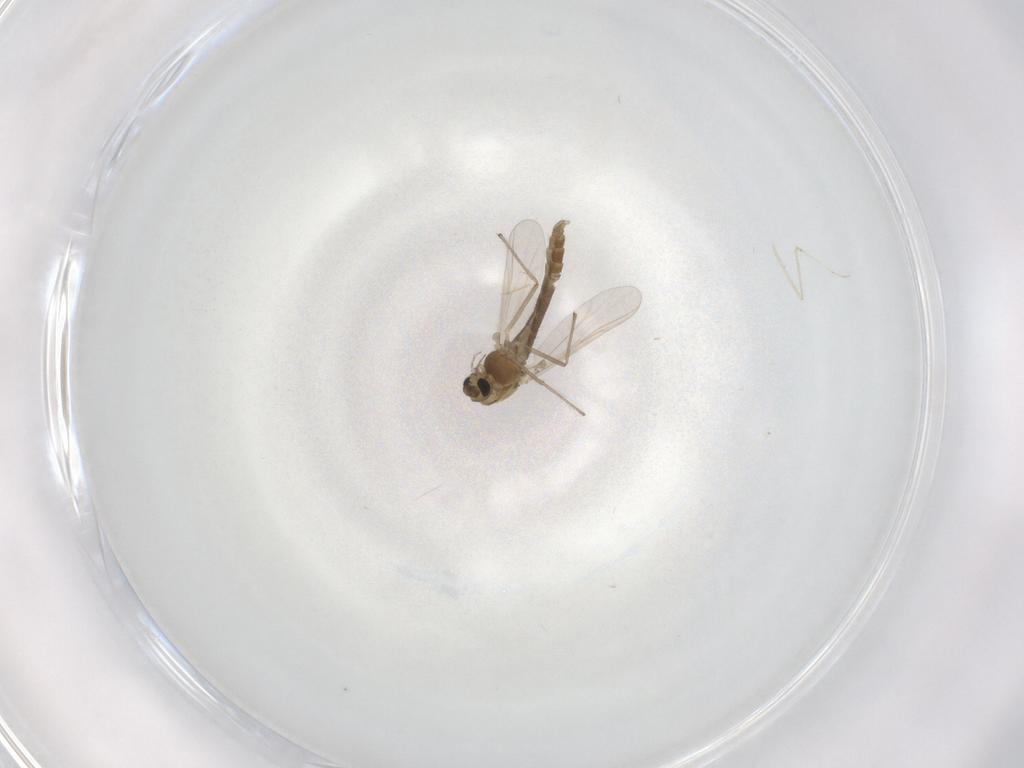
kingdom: Animalia
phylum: Arthropoda
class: Insecta
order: Diptera
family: Chironomidae
